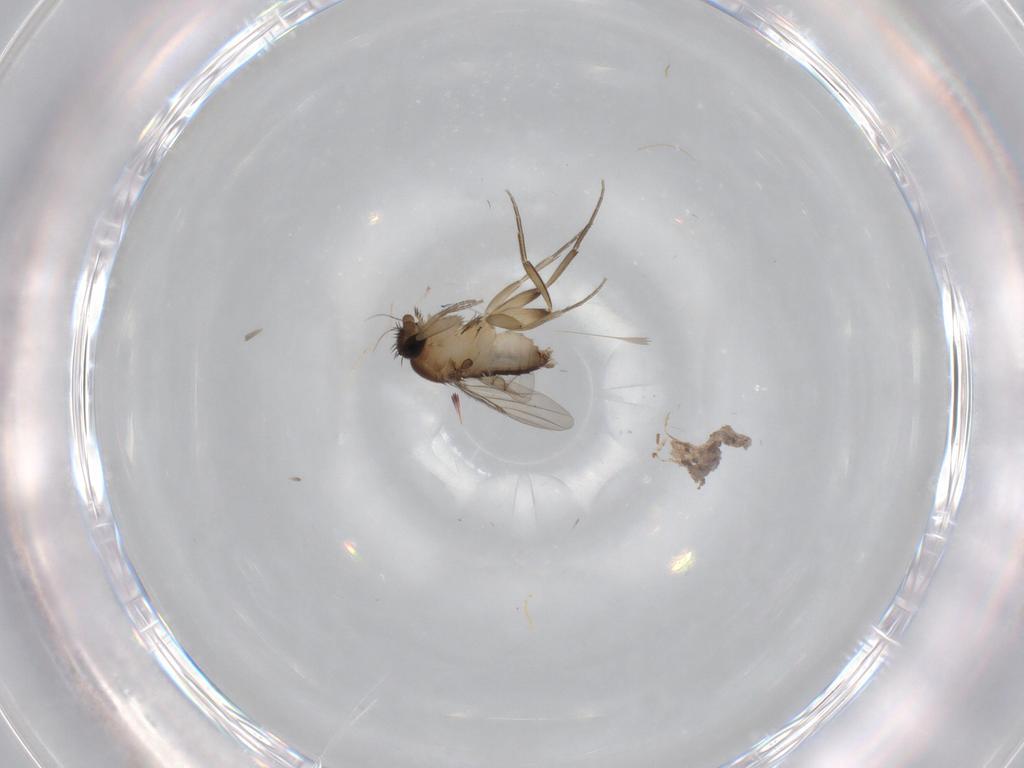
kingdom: Animalia
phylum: Arthropoda
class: Insecta
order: Diptera
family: Phoridae
